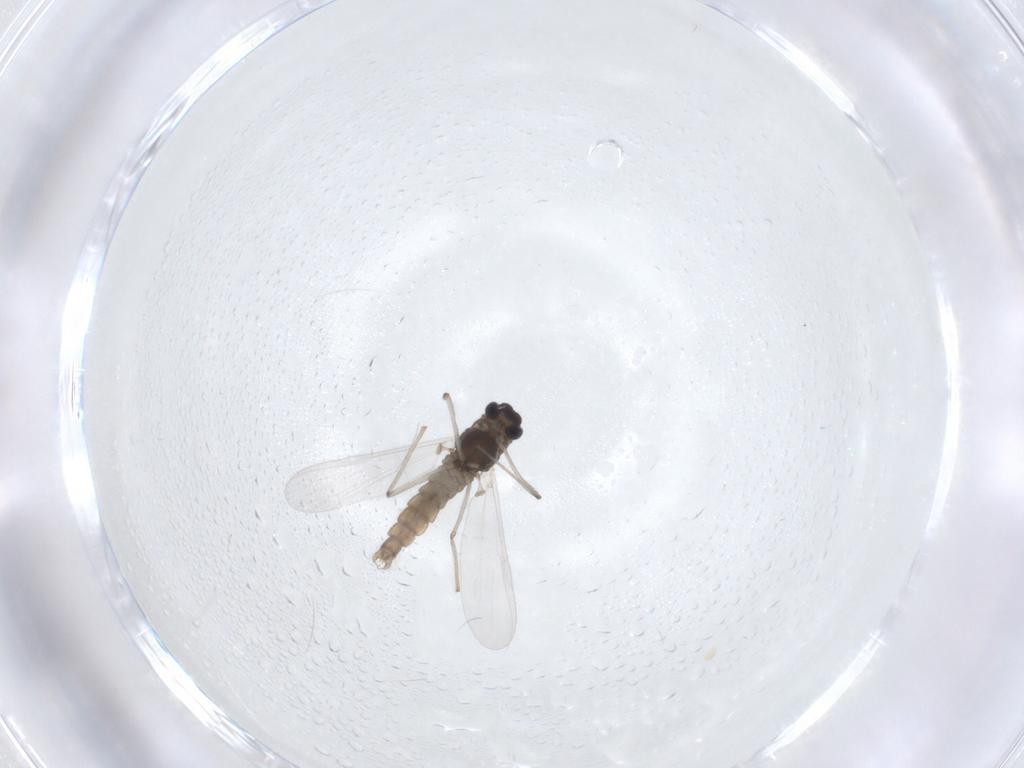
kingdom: Animalia
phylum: Arthropoda
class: Insecta
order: Diptera
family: Chironomidae
